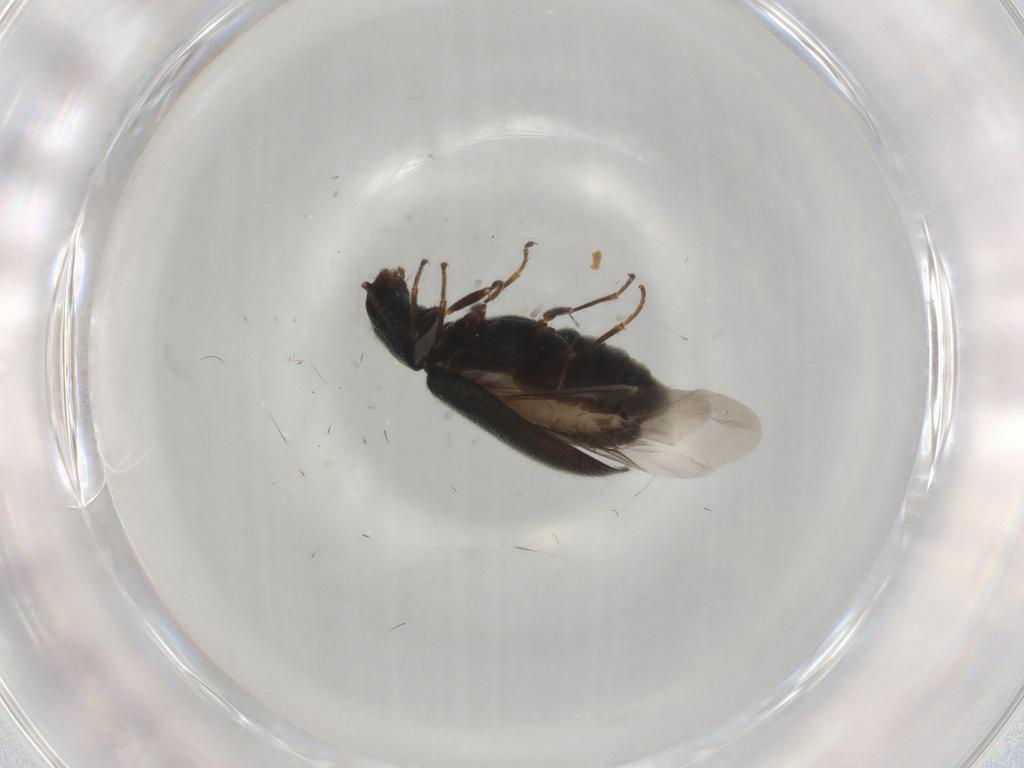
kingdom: Animalia
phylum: Arthropoda
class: Insecta
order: Coleoptera
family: Melyridae
